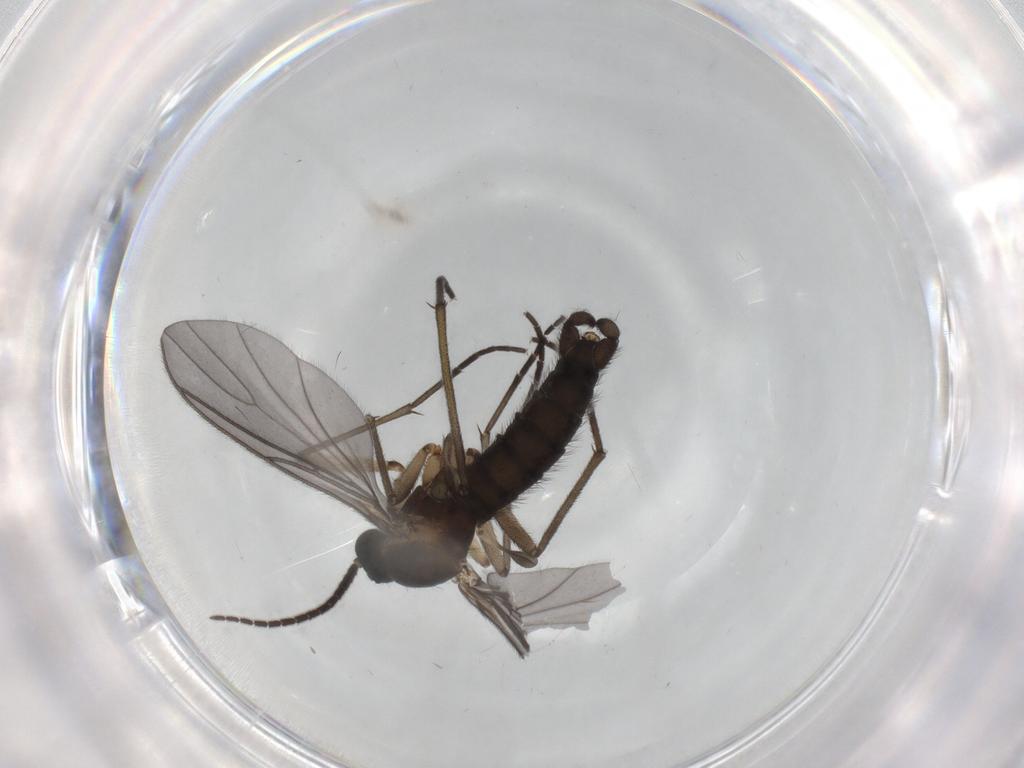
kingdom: Animalia
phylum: Arthropoda
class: Insecta
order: Diptera
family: Sciaridae
